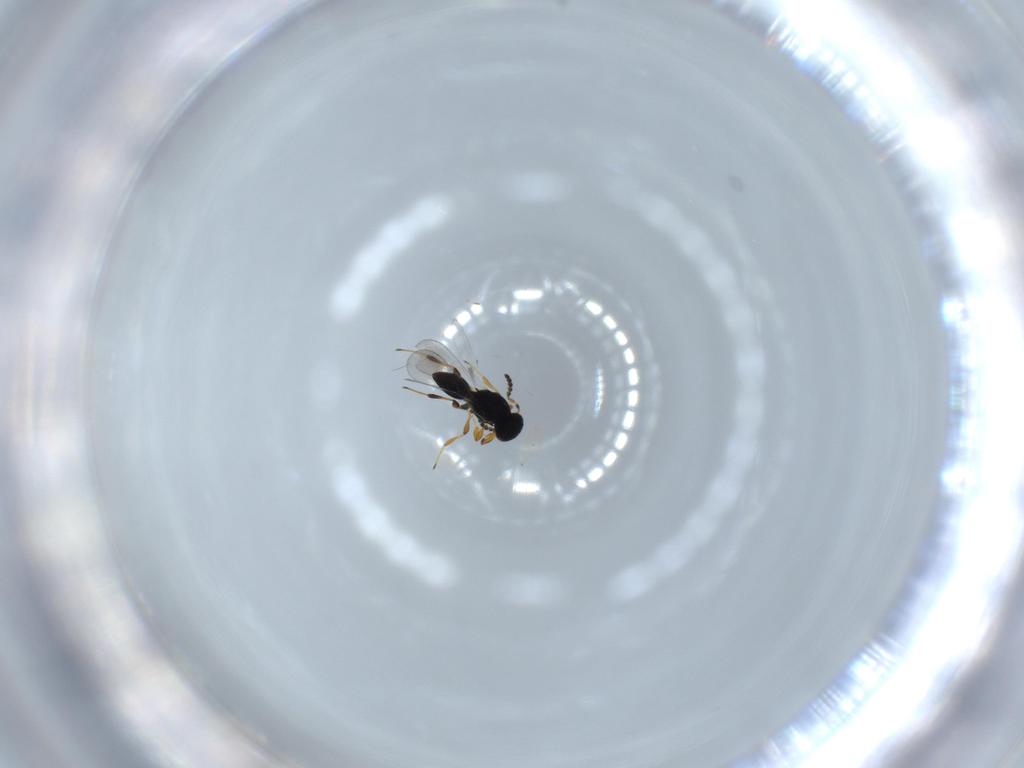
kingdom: Animalia
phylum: Arthropoda
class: Insecta
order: Hymenoptera
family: Platygastridae
